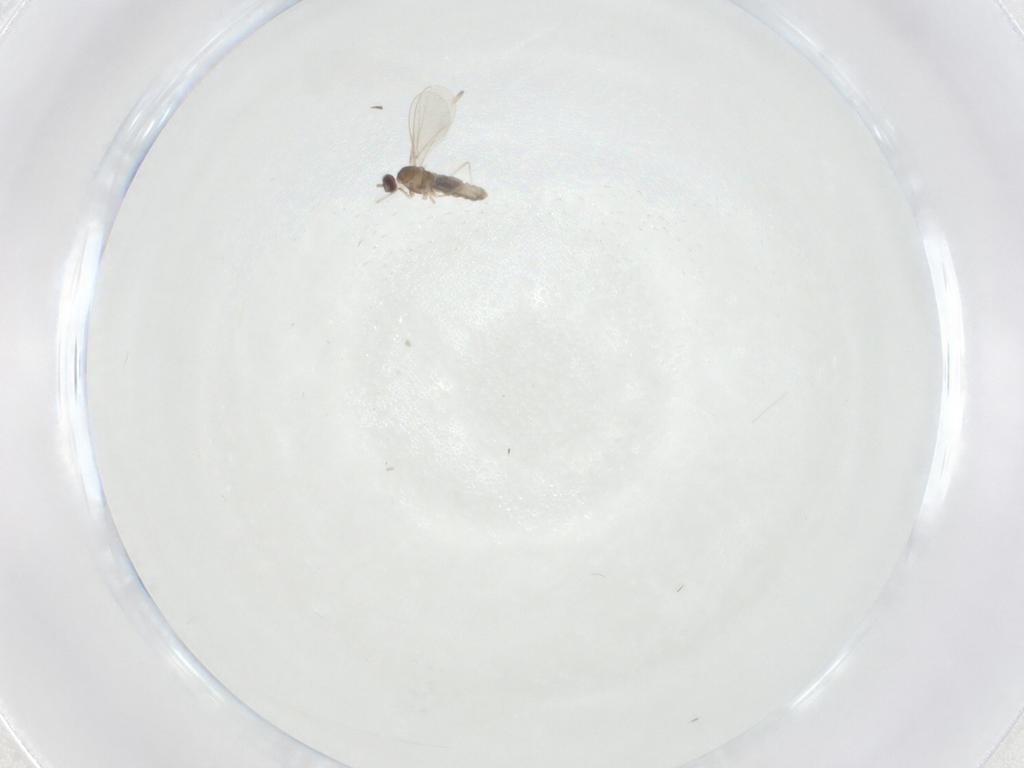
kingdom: Animalia
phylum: Arthropoda
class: Insecta
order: Diptera
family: Cecidomyiidae
